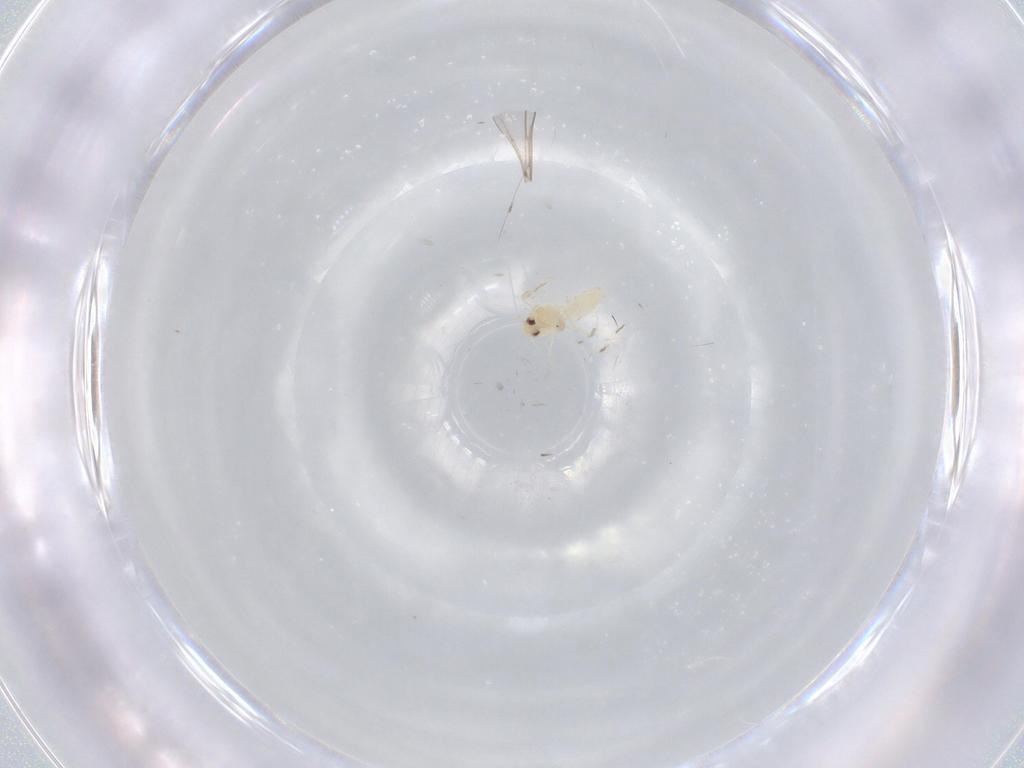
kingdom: Animalia
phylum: Arthropoda
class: Insecta
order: Hemiptera
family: Aleyrodidae
